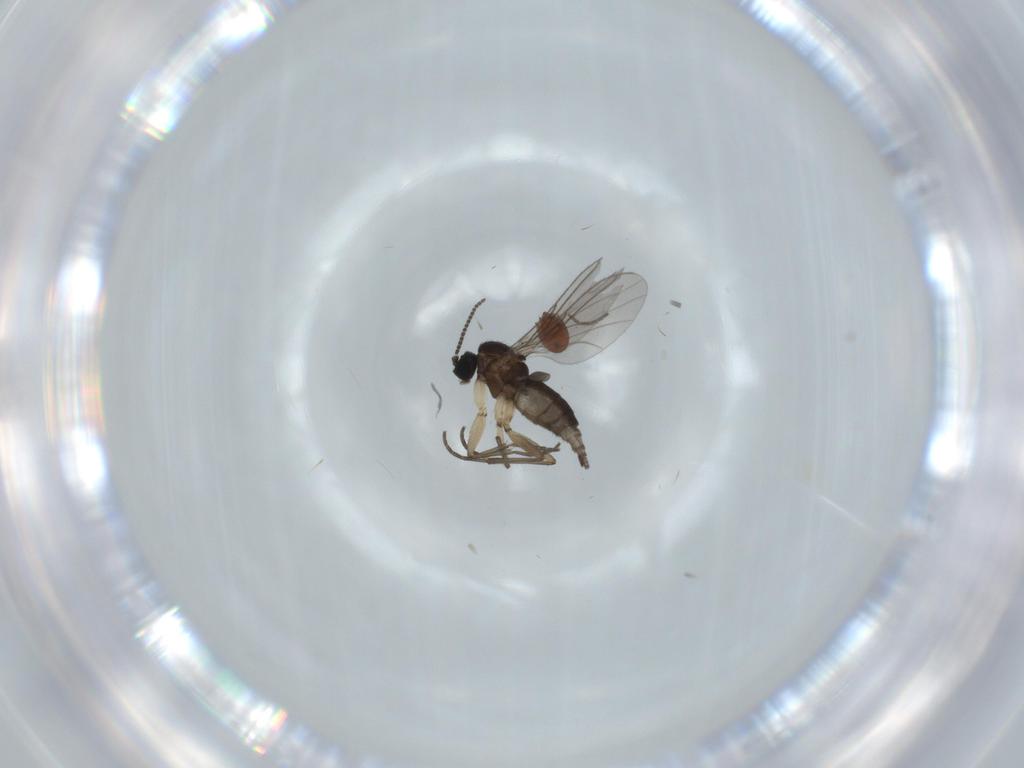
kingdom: Animalia
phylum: Arthropoda
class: Insecta
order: Diptera
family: Sciaridae
